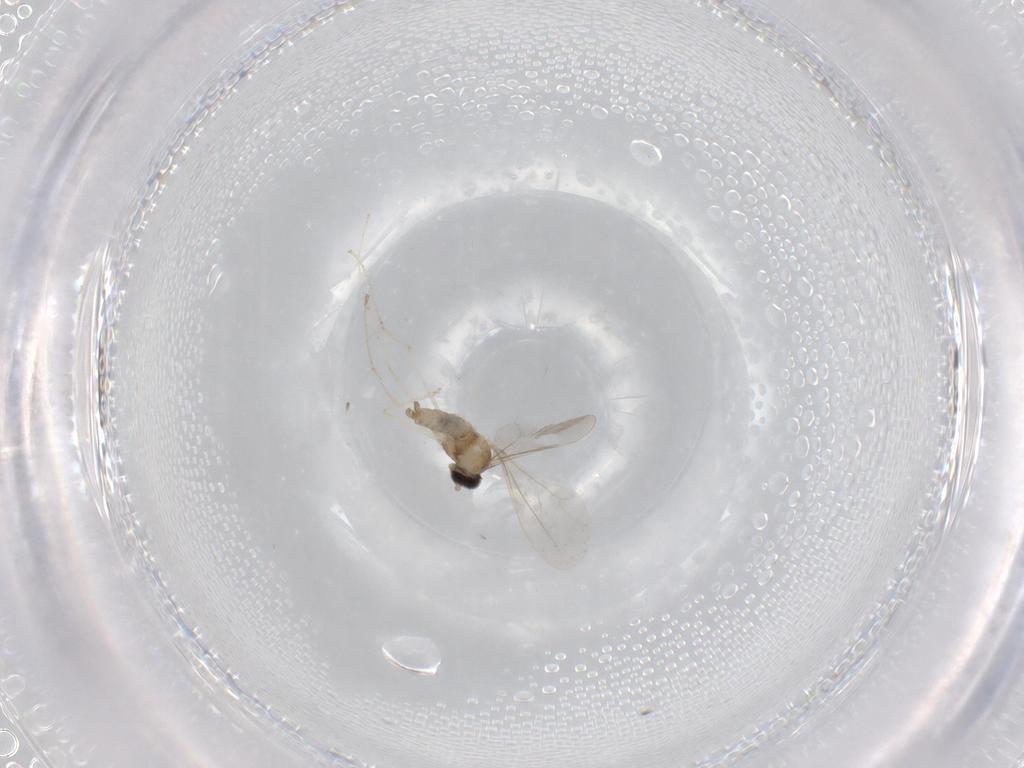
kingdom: Animalia
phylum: Arthropoda
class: Insecta
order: Diptera
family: Cecidomyiidae
